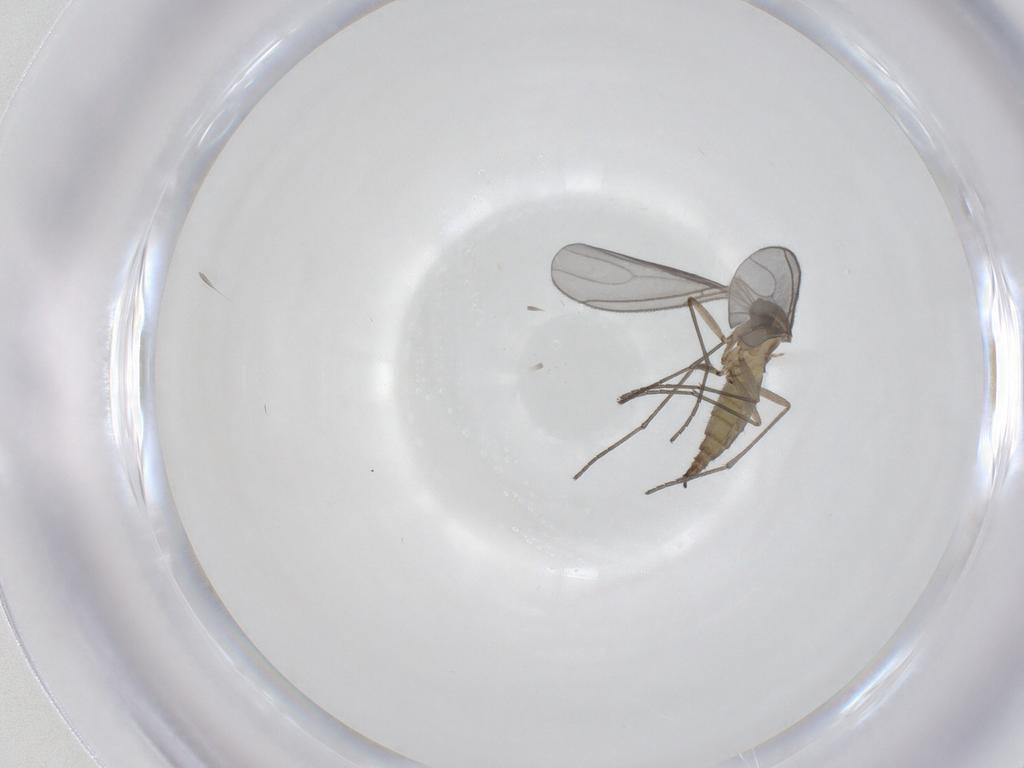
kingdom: Animalia
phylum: Arthropoda
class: Insecta
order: Diptera
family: Sciaridae
